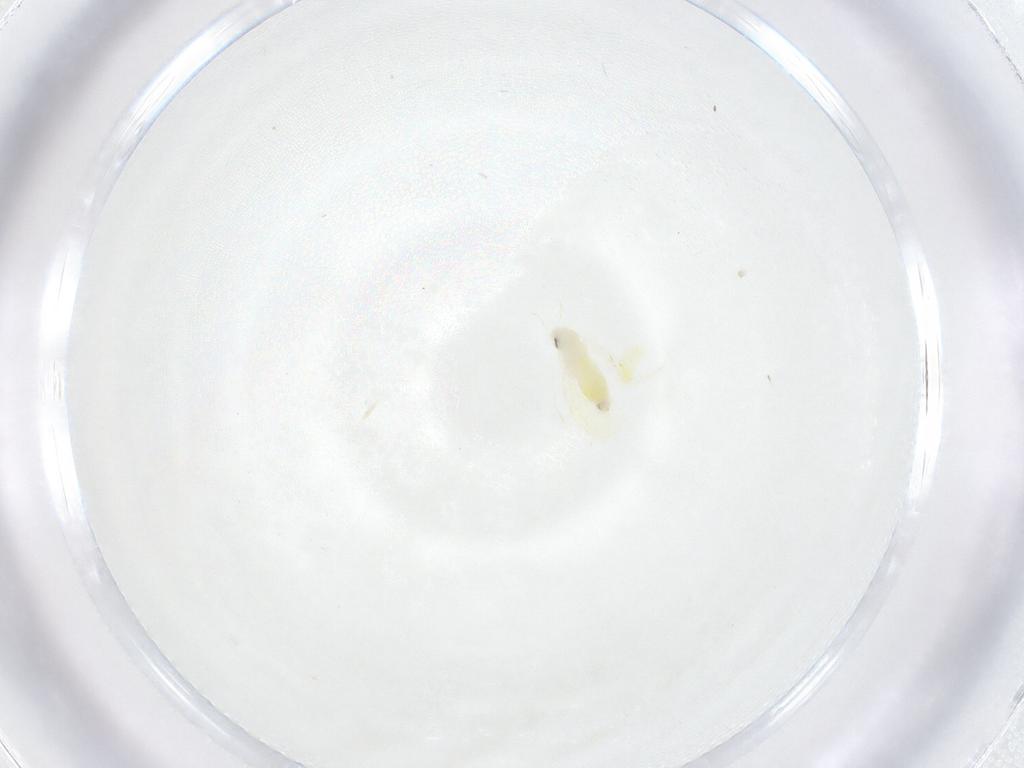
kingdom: Animalia
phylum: Arthropoda
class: Insecta
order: Hemiptera
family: Aleyrodidae
